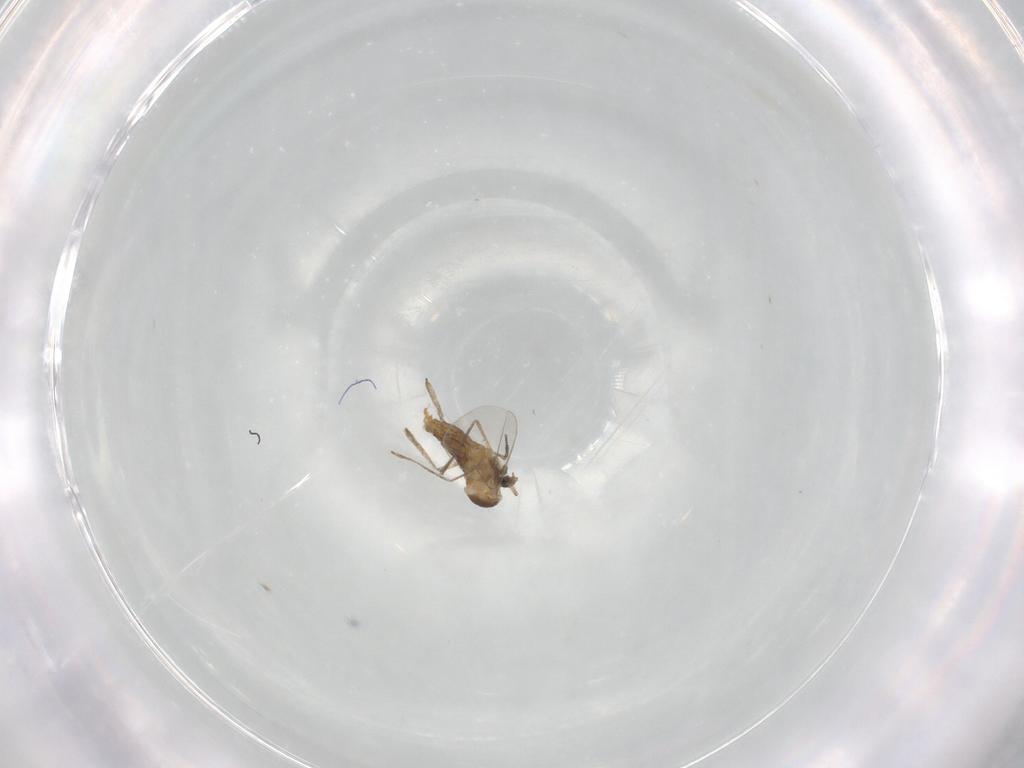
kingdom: Animalia
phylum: Arthropoda
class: Insecta
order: Diptera
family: Cecidomyiidae
